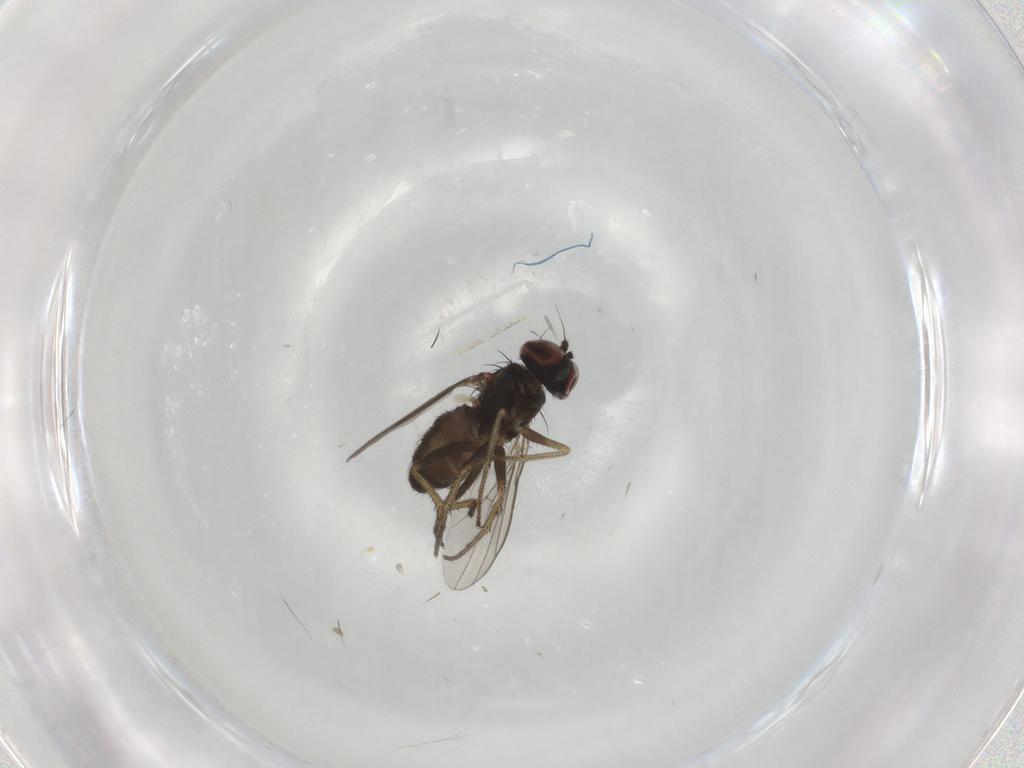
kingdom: Animalia
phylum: Arthropoda
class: Insecta
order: Diptera
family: Dolichopodidae
